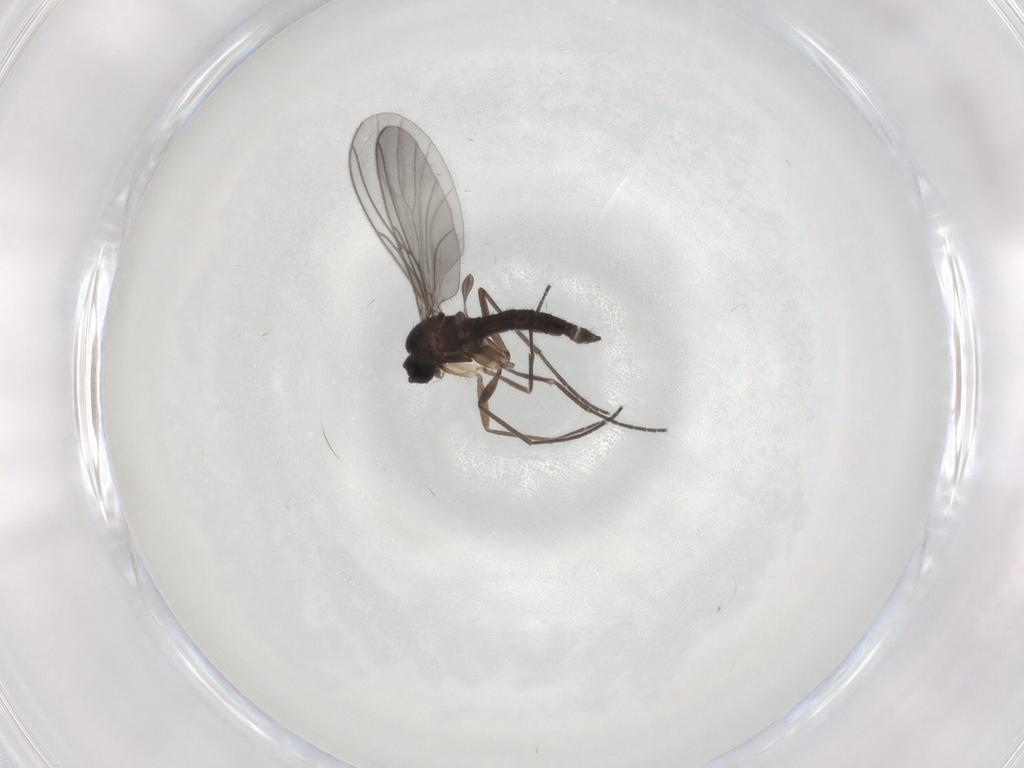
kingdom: Animalia
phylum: Arthropoda
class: Insecta
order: Diptera
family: Sciaridae
